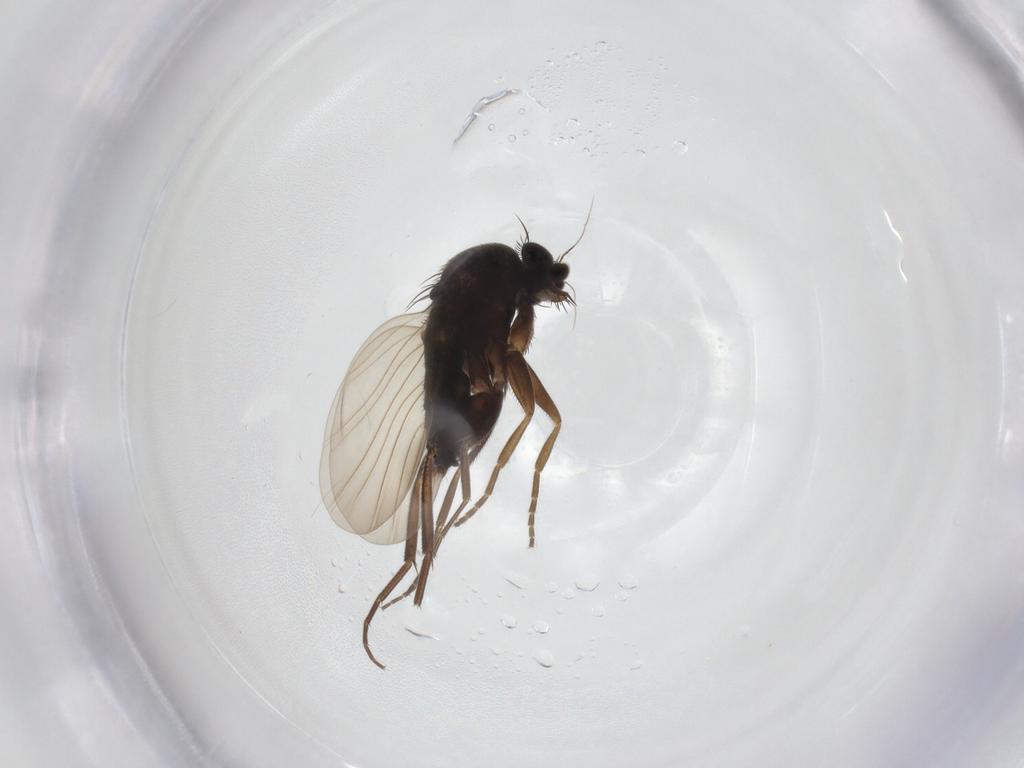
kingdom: Animalia
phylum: Arthropoda
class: Insecta
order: Diptera
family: Phoridae
